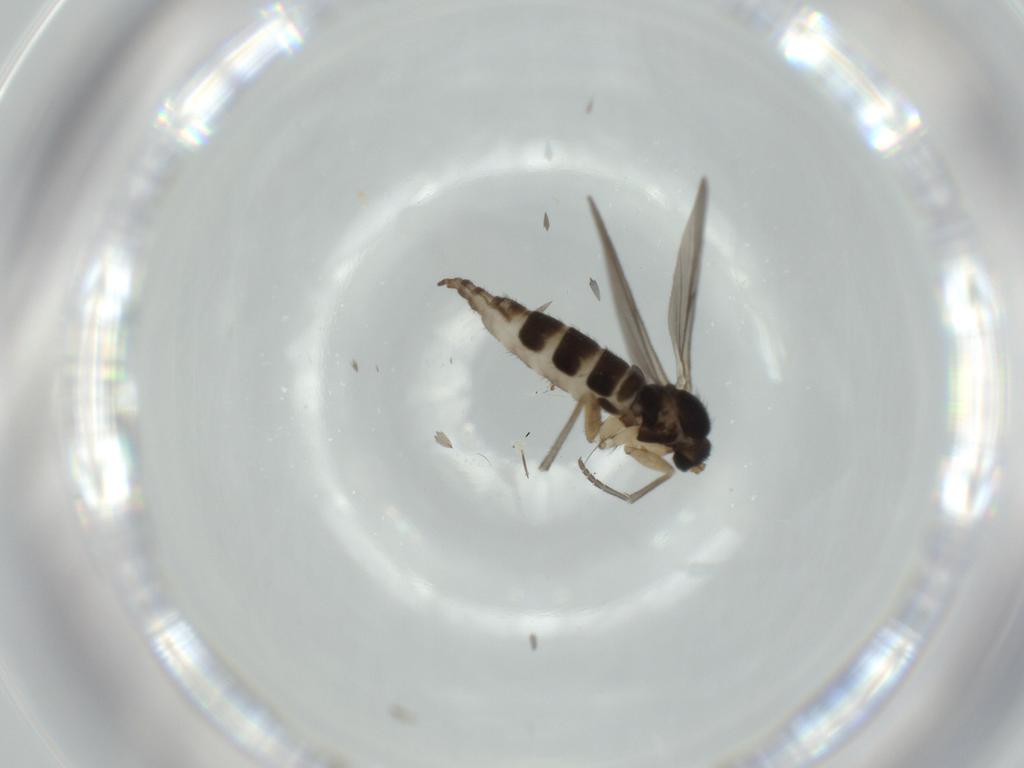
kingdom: Animalia
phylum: Arthropoda
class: Insecta
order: Diptera
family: Sciaridae
